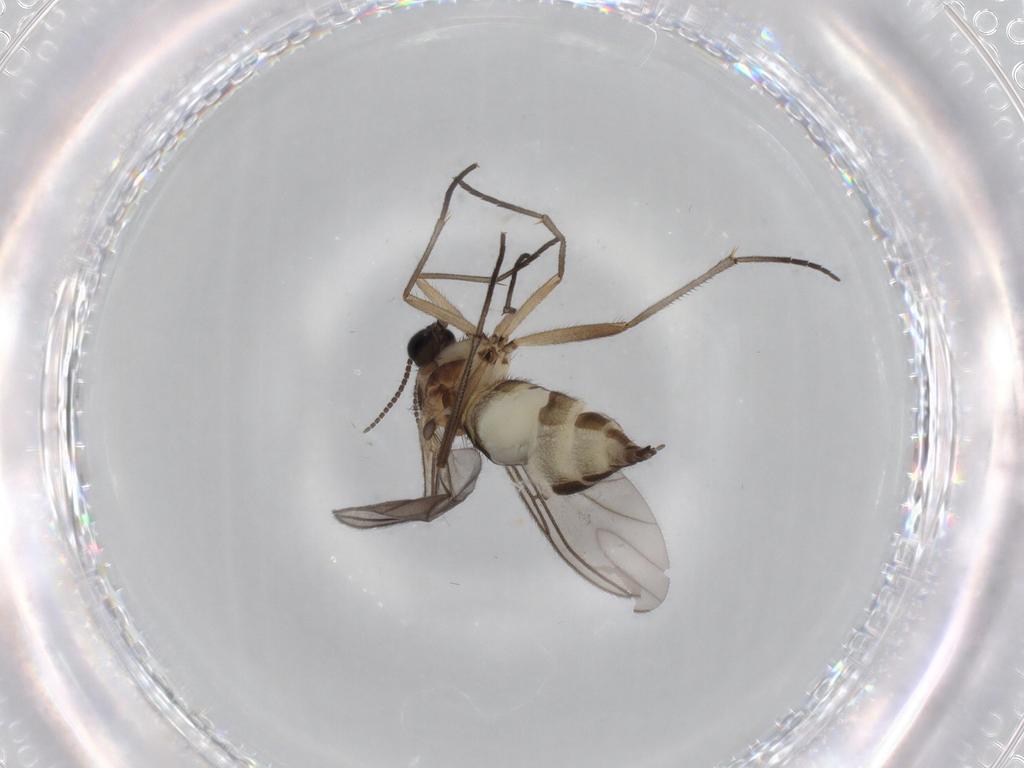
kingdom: Animalia
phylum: Arthropoda
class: Insecta
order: Diptera
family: Sciaridae
